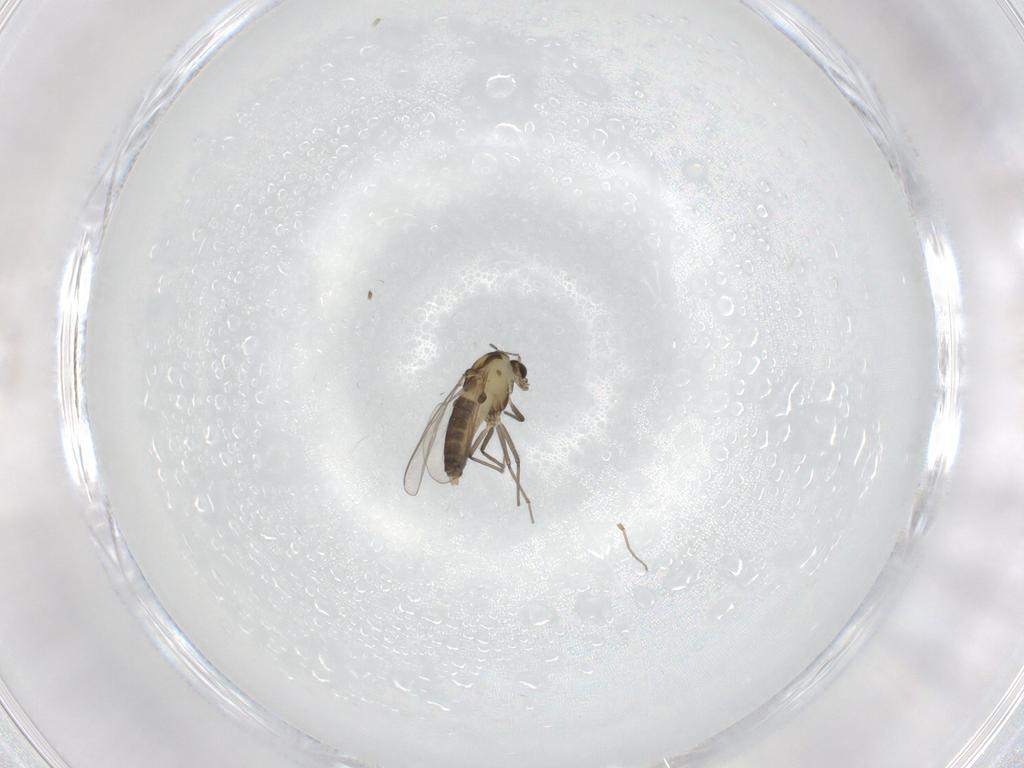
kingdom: Animalia
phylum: Arthropoda
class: Insecta
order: Diptera
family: Chironomidae
